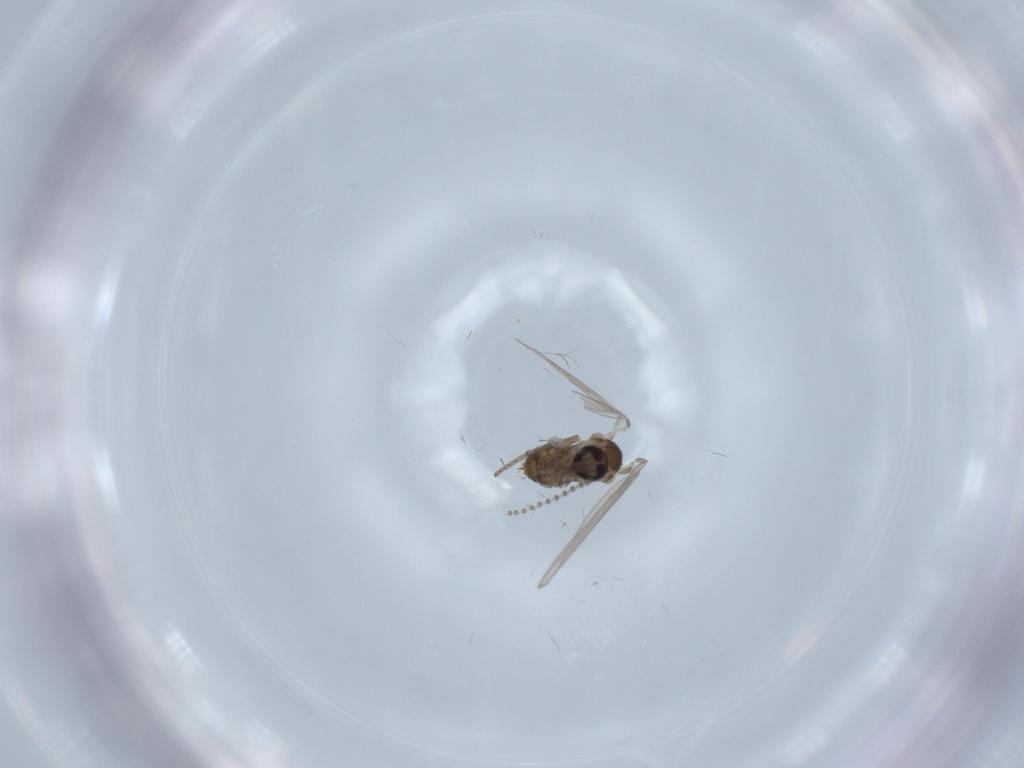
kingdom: Animalia
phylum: Arthropoda
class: Insecta
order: Diptera
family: Psychodidae
